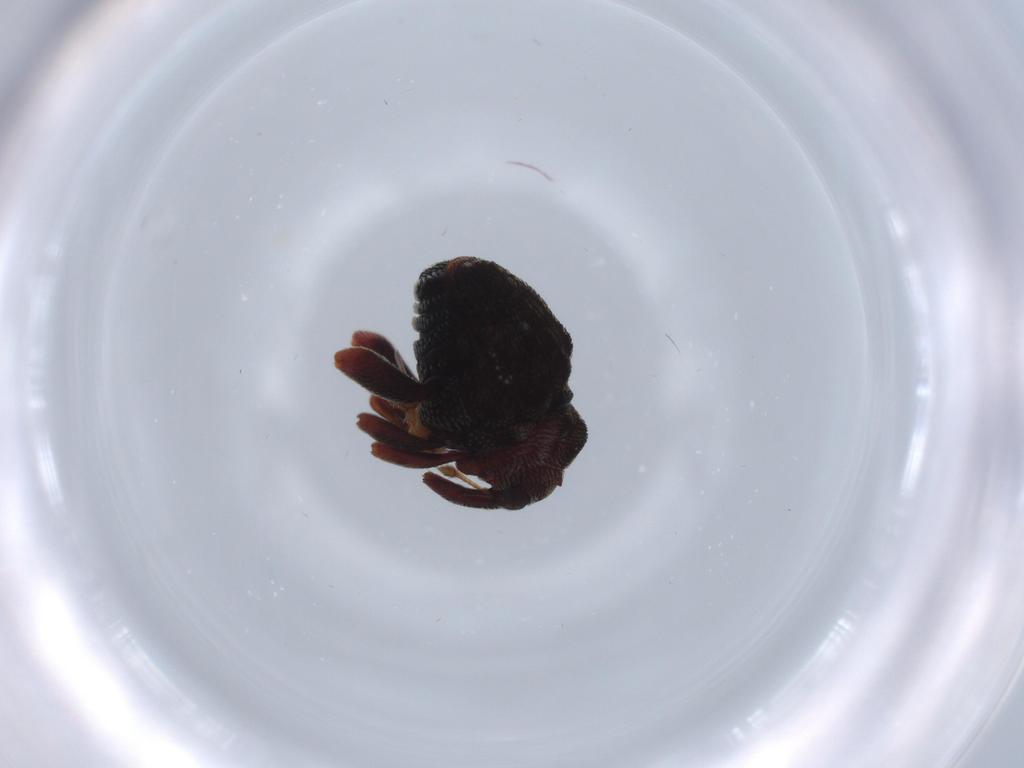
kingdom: Animalia
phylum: Arthropoda
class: Insecta
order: Coleoptera
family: Curculionidae
